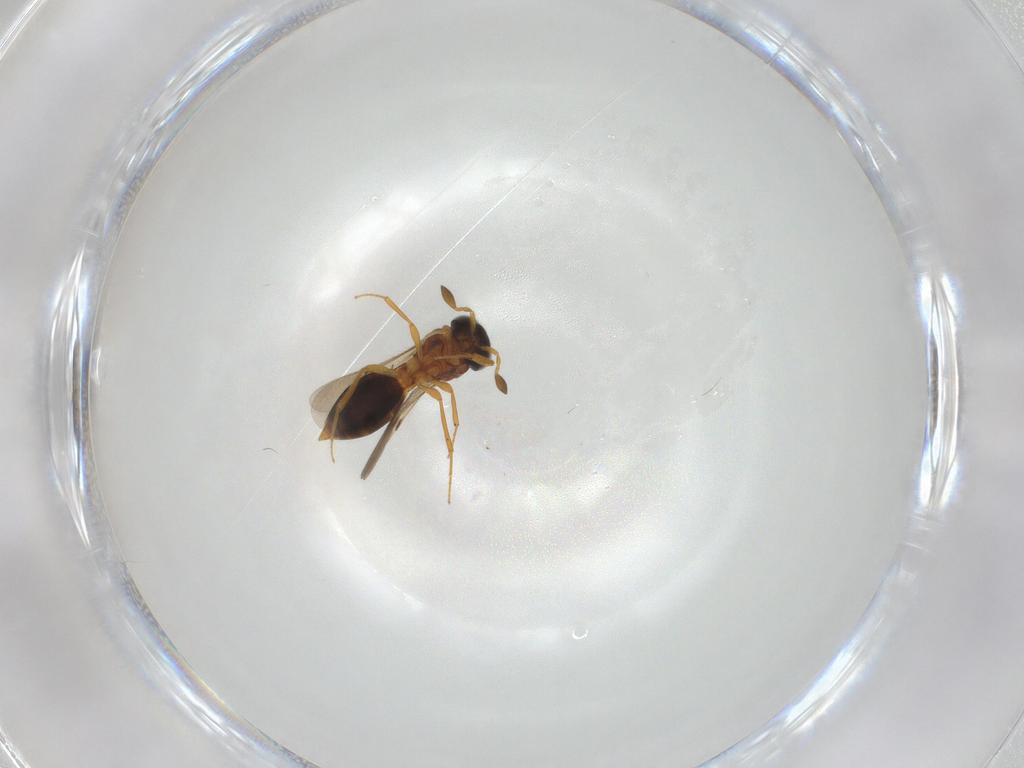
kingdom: Animalia
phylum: Arthropoda
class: Insecta
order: Hymenoptera
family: Scelionidae
